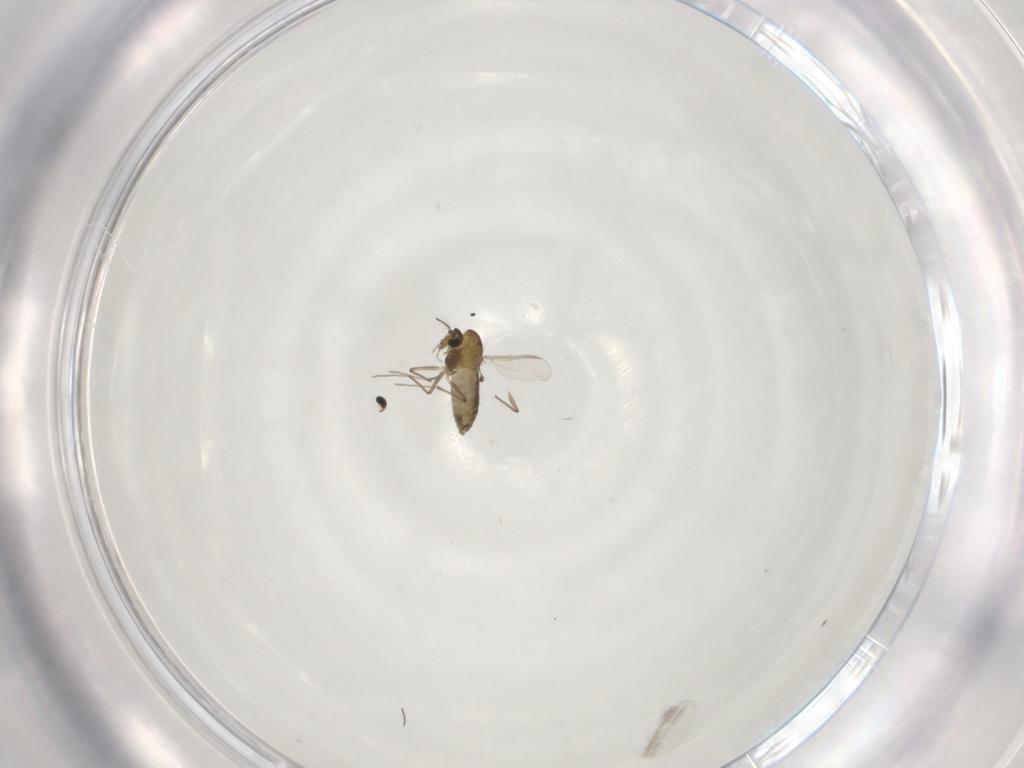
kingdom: Animalia
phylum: Arthropoda
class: Insecta
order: Diptera
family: Chironomidae
